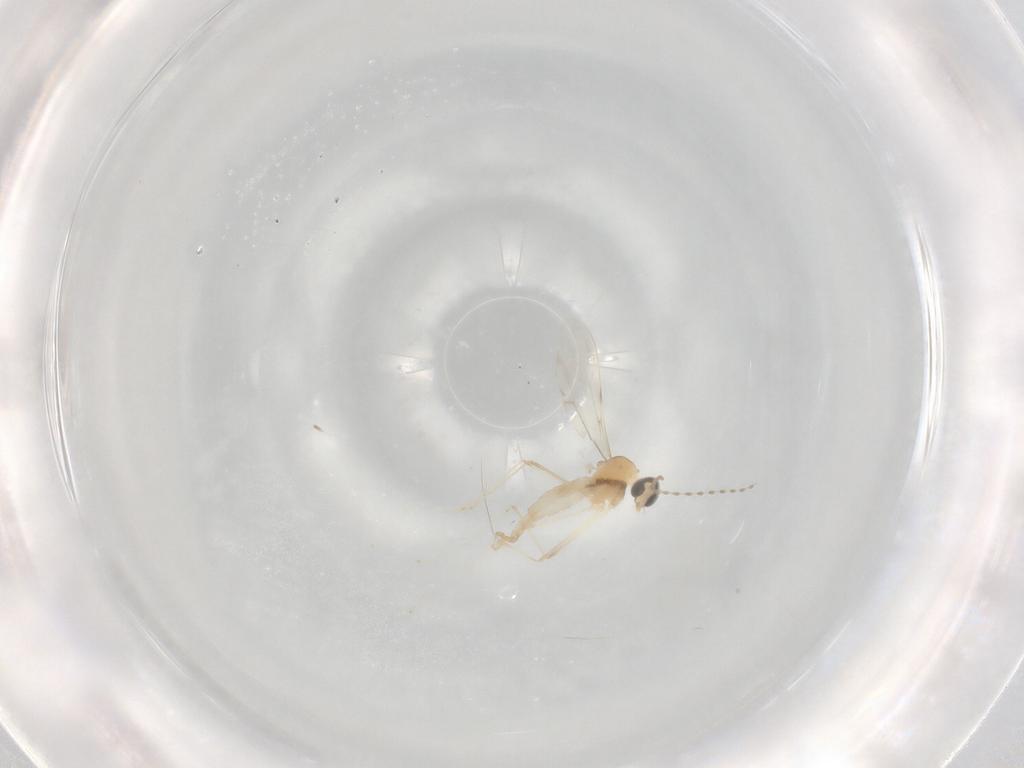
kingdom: Animalia
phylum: Arthropoda
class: Insecta
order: Diptera
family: Cecidomyiidae
